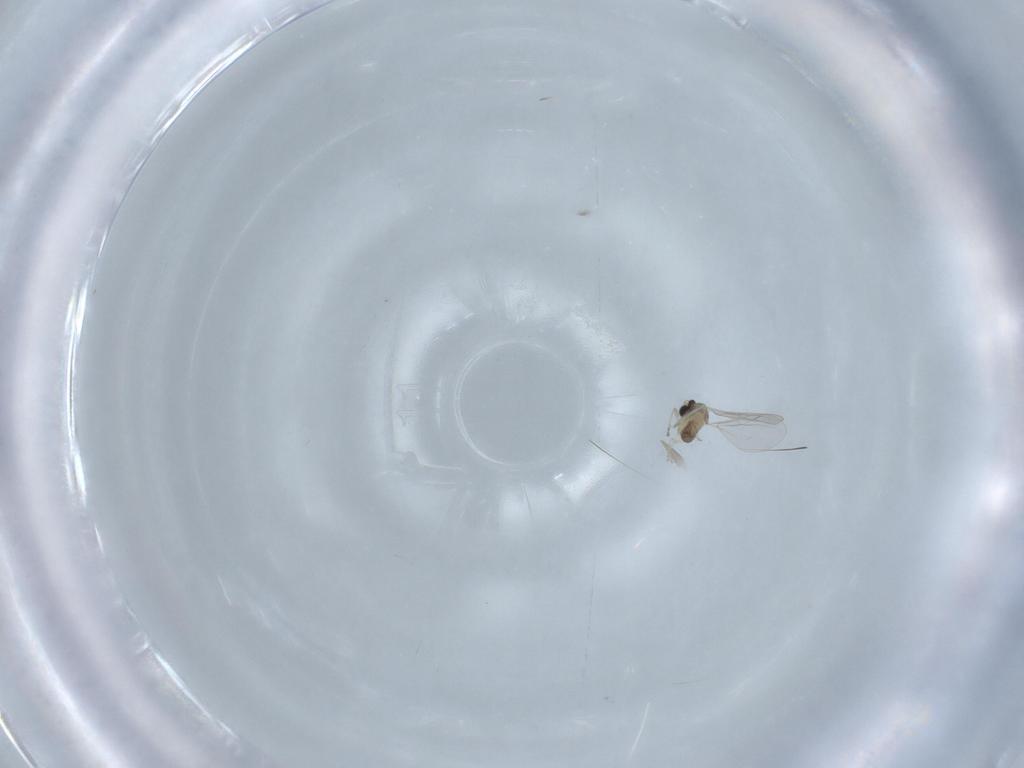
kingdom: Animalia
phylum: Arthropoda
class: Insecta
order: Diptera
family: Cecidomyiidae
